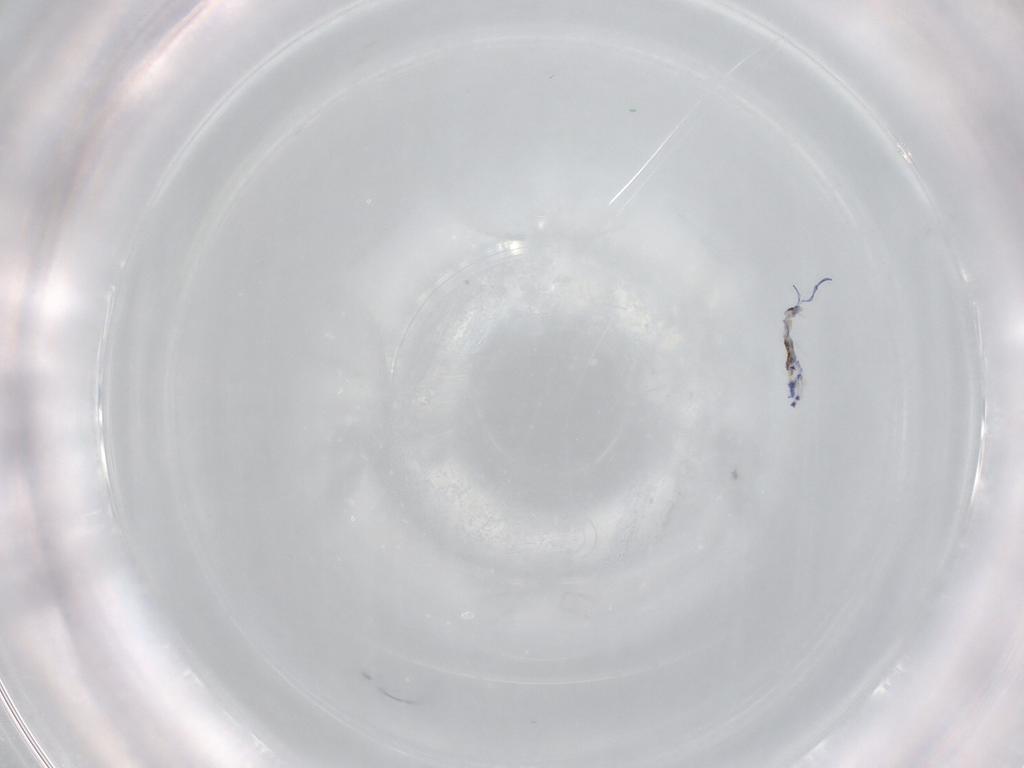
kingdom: Animalia
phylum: Arthropoda
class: Collembola
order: Entomobryomorpha
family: Entomobryidae
